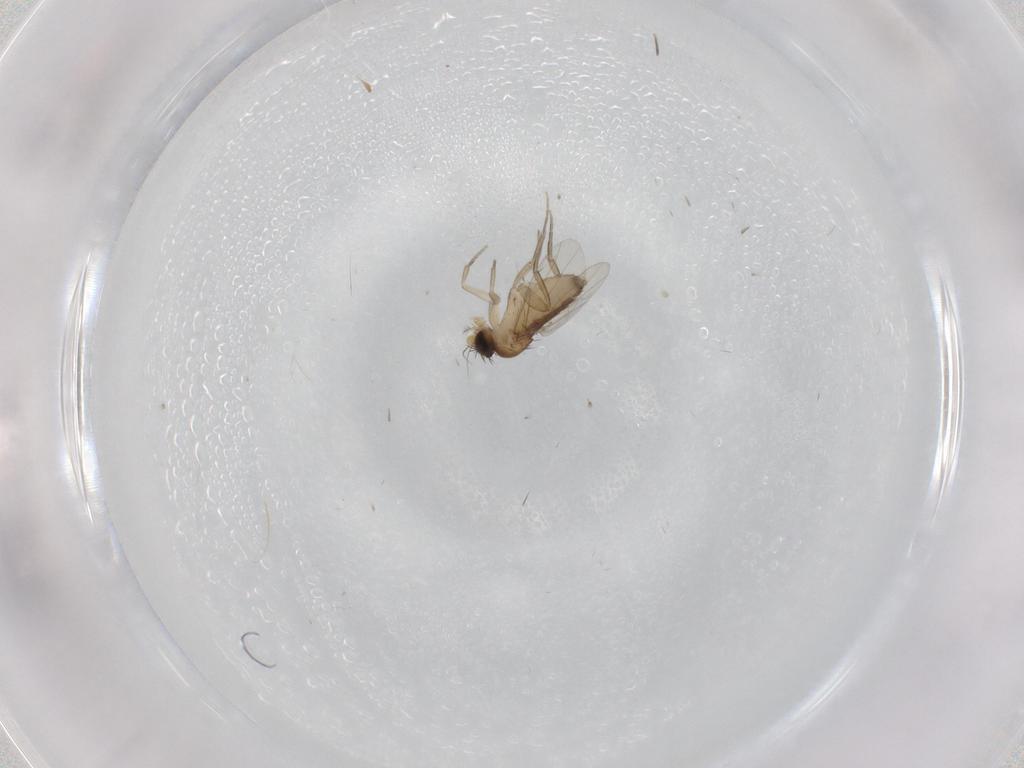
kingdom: Animalia
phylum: Arthropoda
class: Insecta
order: Diptera
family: Phoridae
